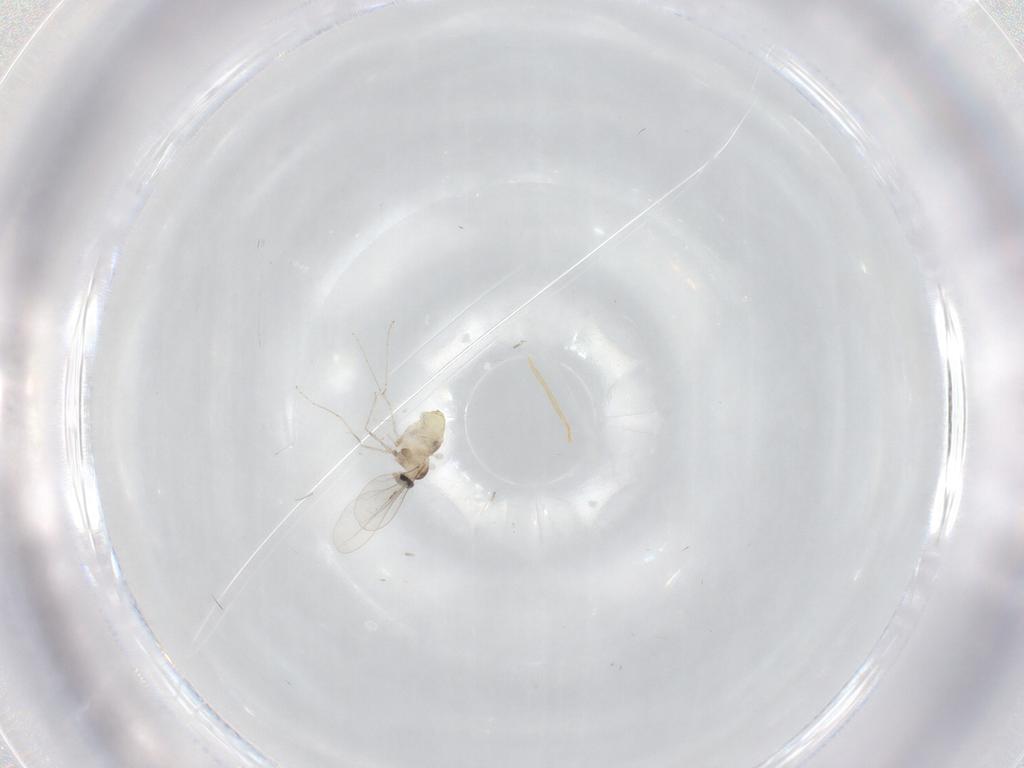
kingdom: Animalia
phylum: Arthropoda
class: Insecta
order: Diptera
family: Cecidomyiidae
